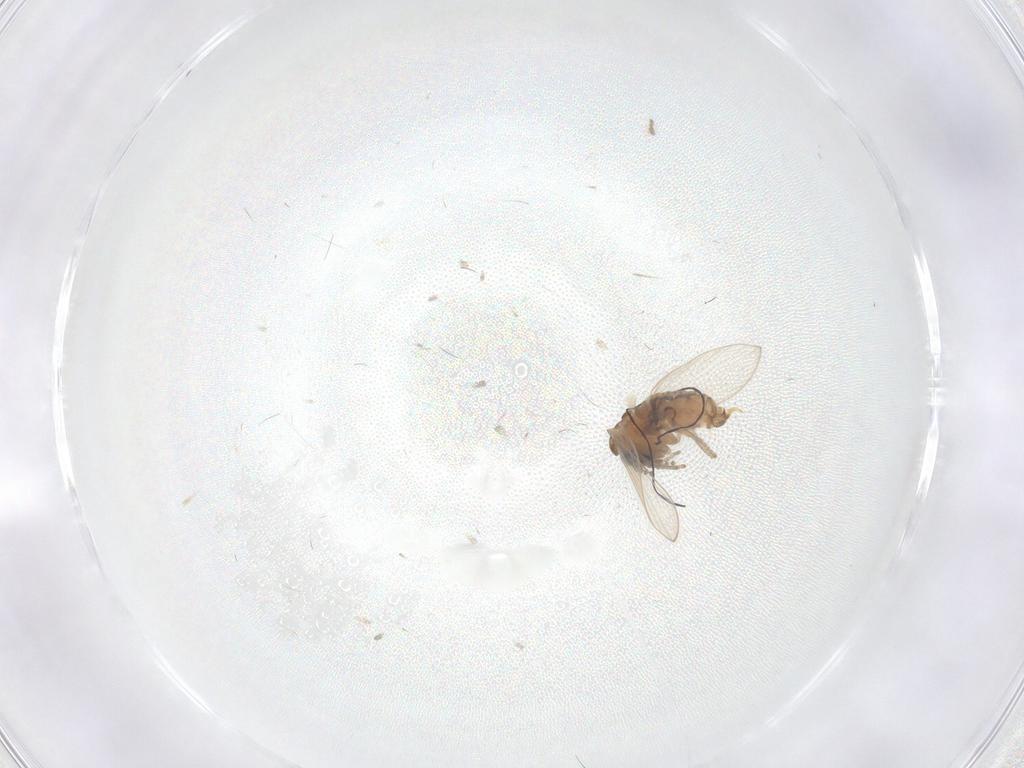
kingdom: Animalia
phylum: Arthropoda
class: Insecta
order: Diptera
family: Psychodidae
